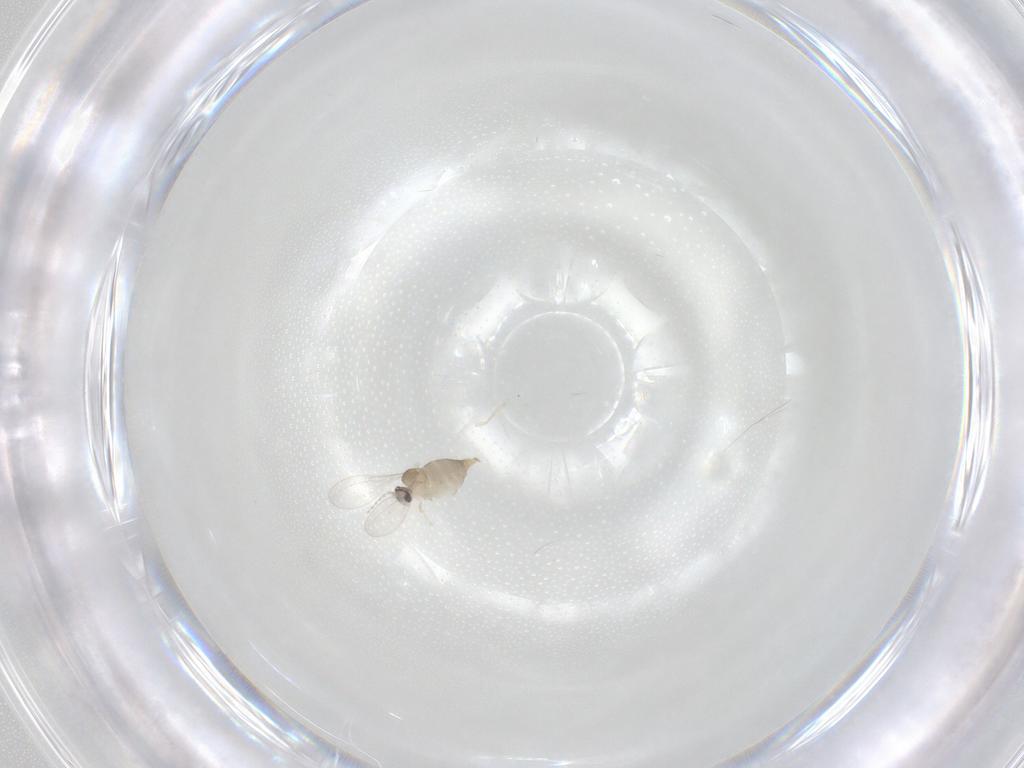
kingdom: Animalia
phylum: Arthropoda
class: Insecta
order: Diptera
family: Cecidomyiidae
